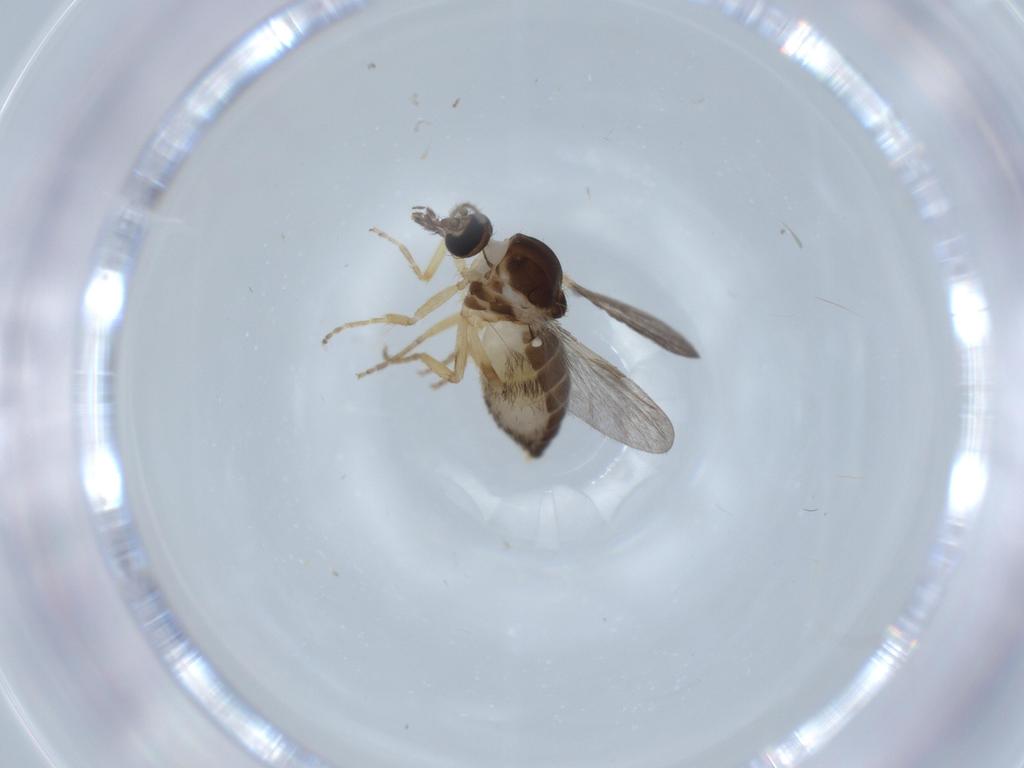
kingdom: Animalia
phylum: Arthropoda
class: Insecta
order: Diptera
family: Ceratopogonidae
